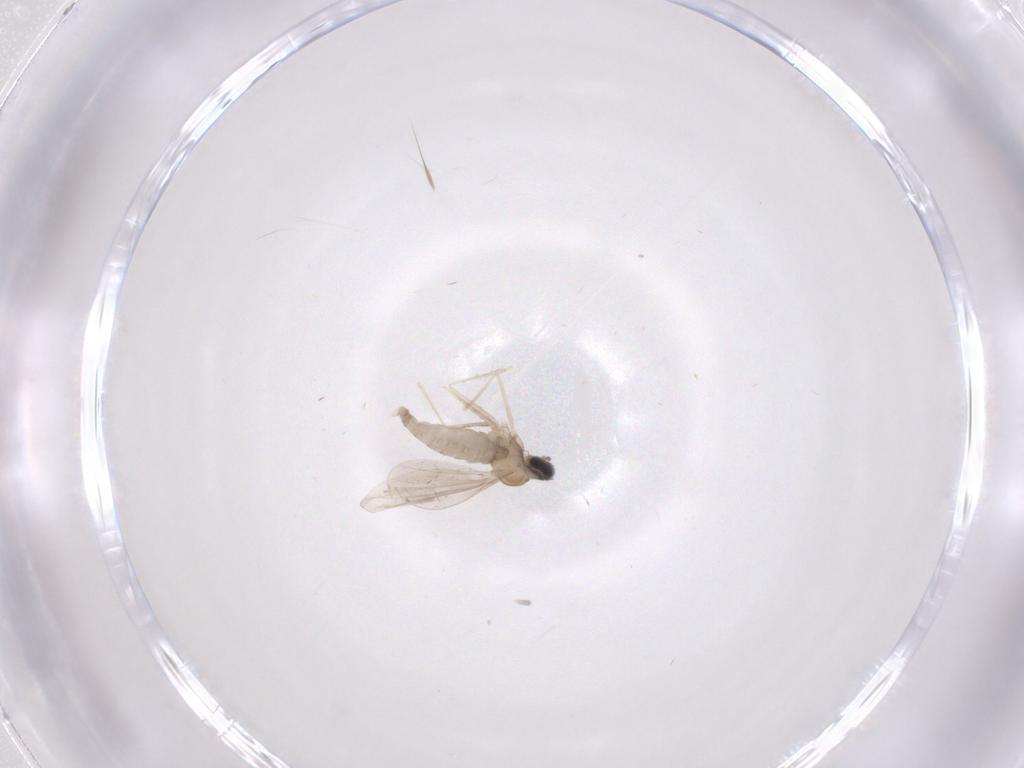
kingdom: Animalia
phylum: Arthropoda
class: Insecta
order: Diptera
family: Cecidomyiidae
